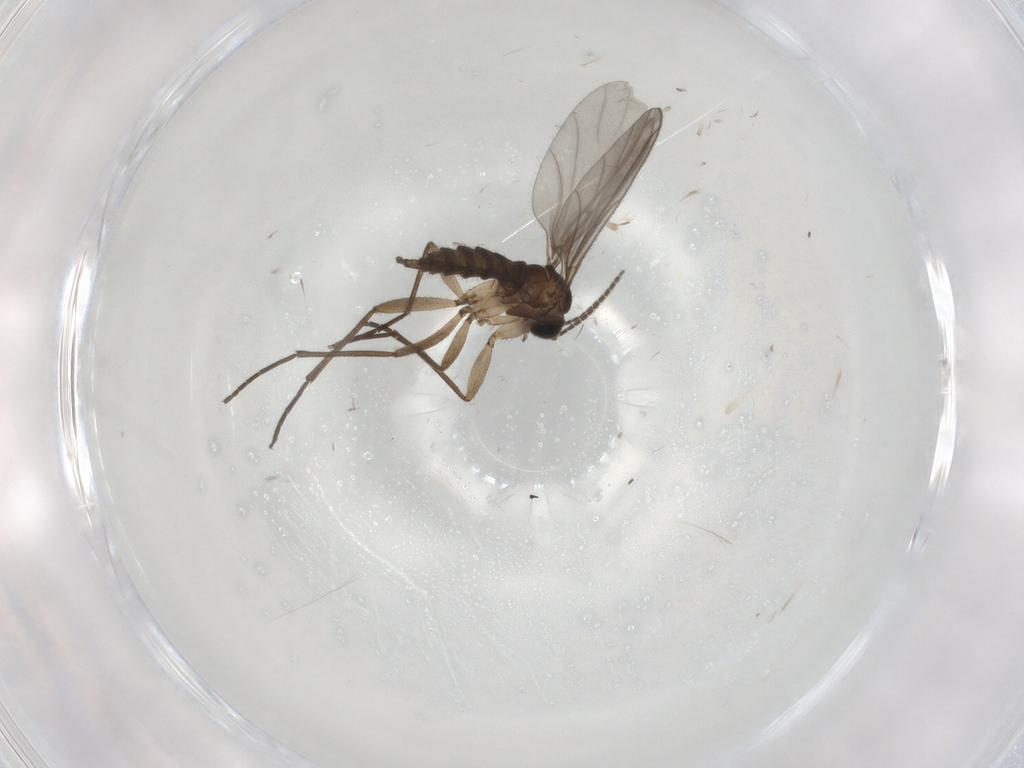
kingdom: Animalia
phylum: Arthropoda
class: Insecta
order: Diptera
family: Sciaridae
